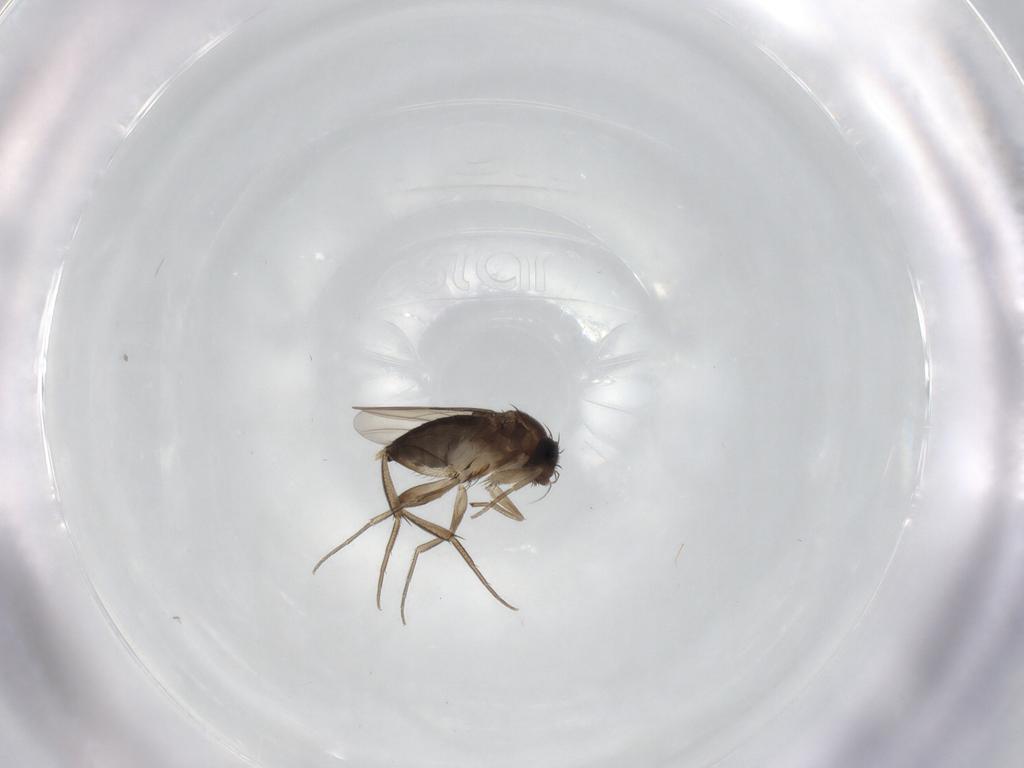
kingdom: Animalia
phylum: Arthropoda
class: Insecta
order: Diptera
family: Phoridae
